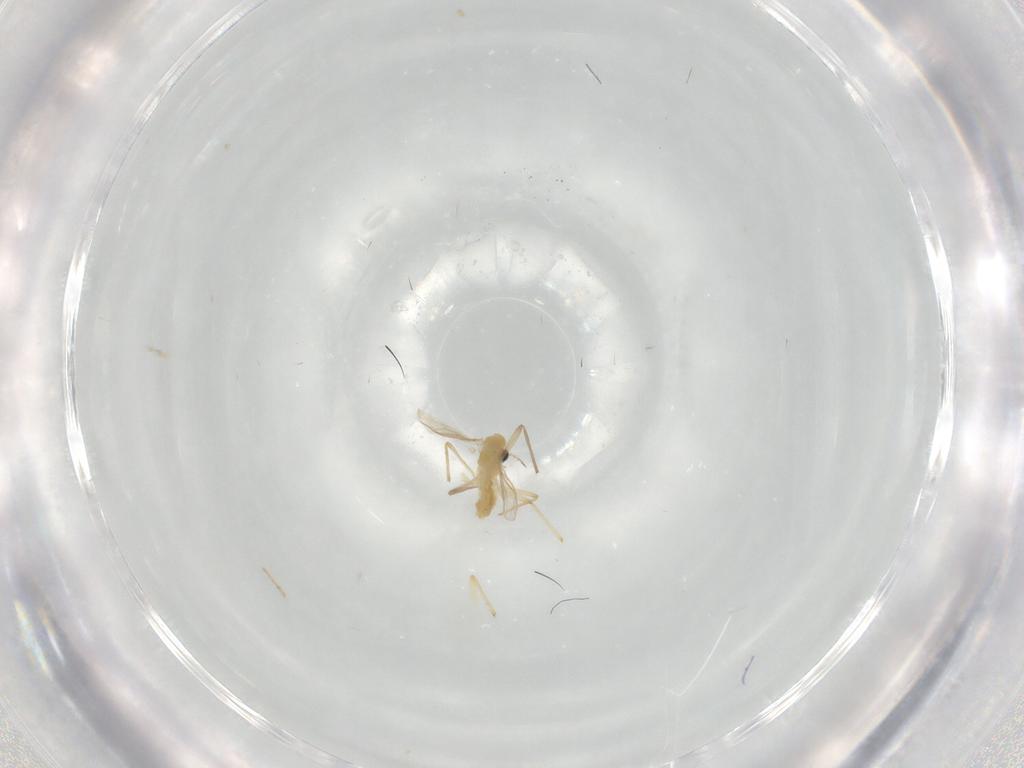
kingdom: Animalia
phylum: Arthropoda
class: Insecta
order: Diptera
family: Chironomidae
